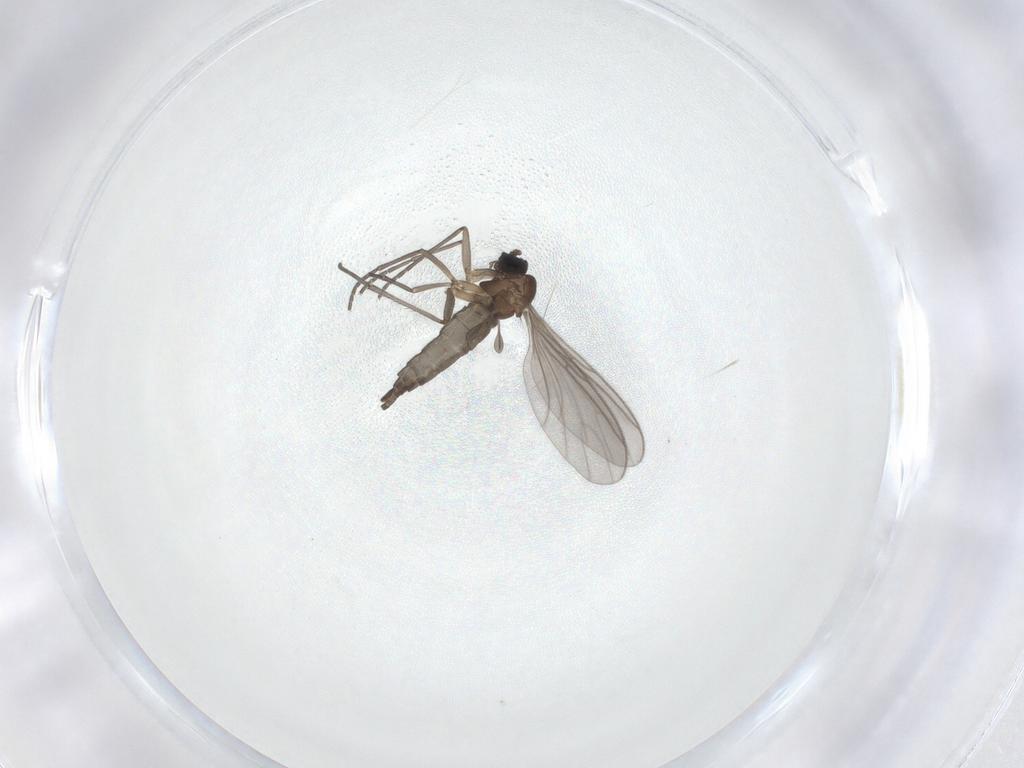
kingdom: Animalia
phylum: Arthropoda
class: Insecta
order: Diptera
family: Sciaridae
